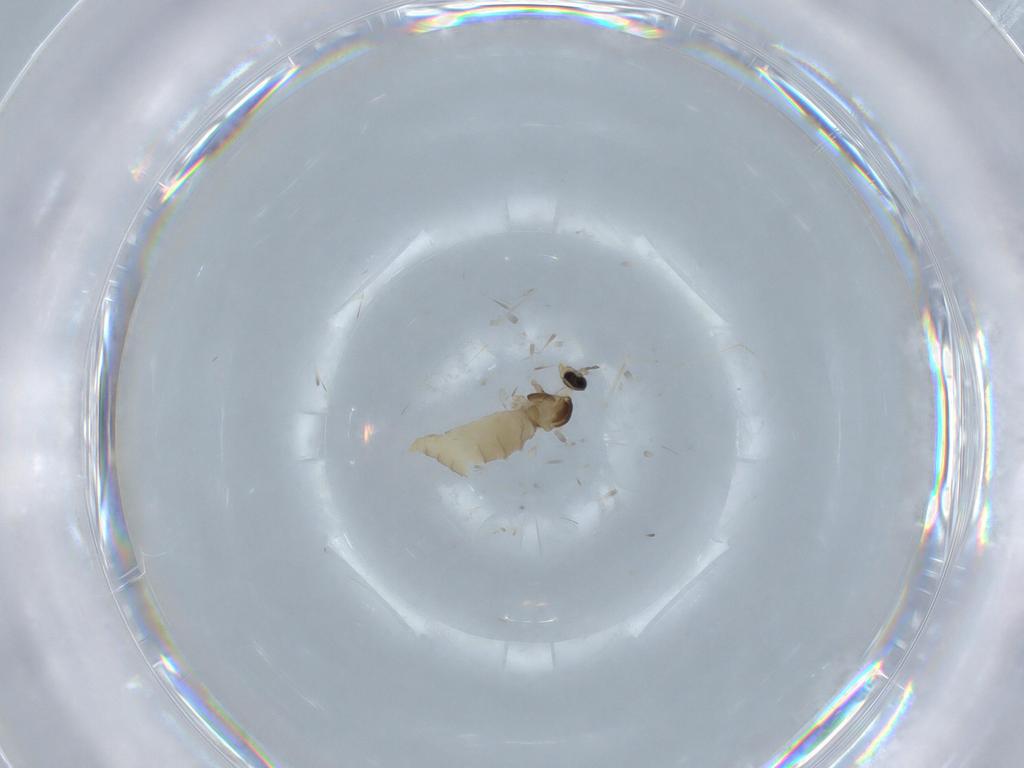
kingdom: Animalia
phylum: Arthropoda
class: Insecta
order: Diptera
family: Cecidomyiidae
